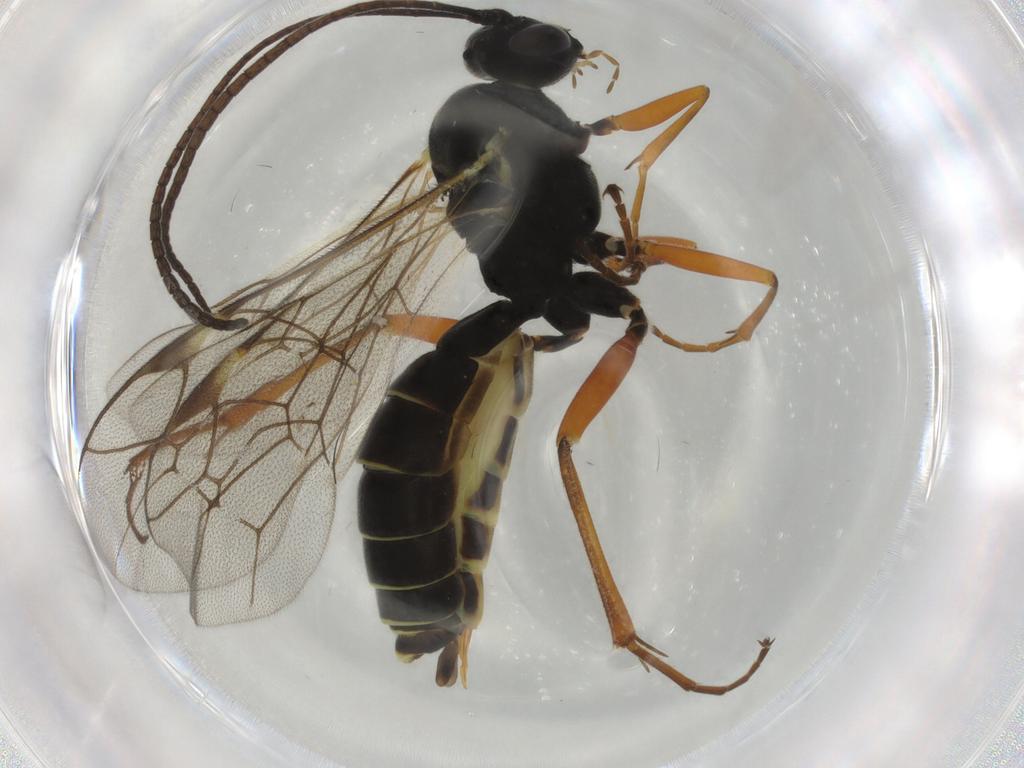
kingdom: Animalia
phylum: Arthropoda
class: Insecta
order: Hymenoptera
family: Ichneumonidae
